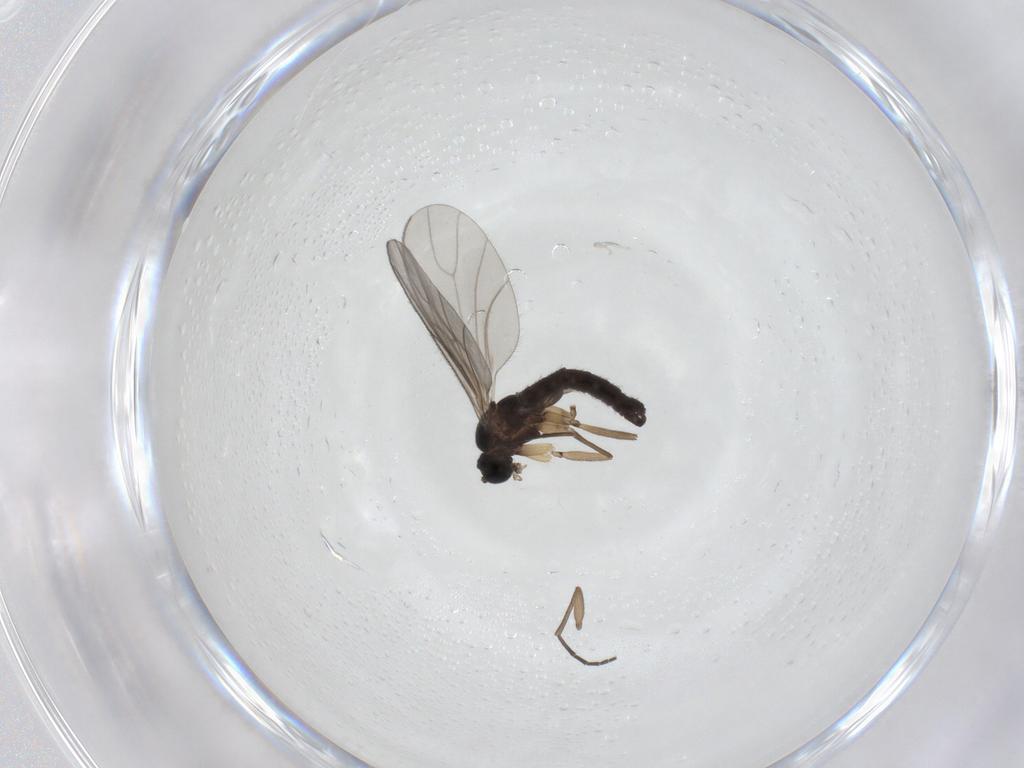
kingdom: Animalia
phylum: Arthropoda
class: Insecta
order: Diptera
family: Sciaridae
